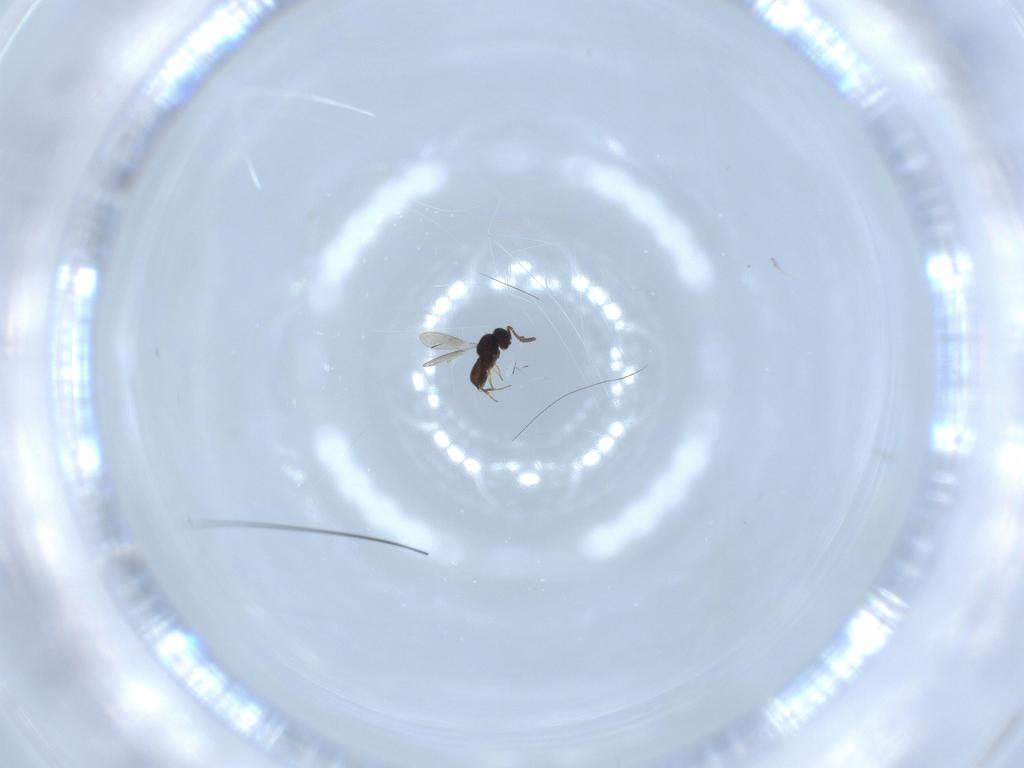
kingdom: Animalia
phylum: Arthropoda
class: Insecta
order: Hymenoptera
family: Scelionidae
